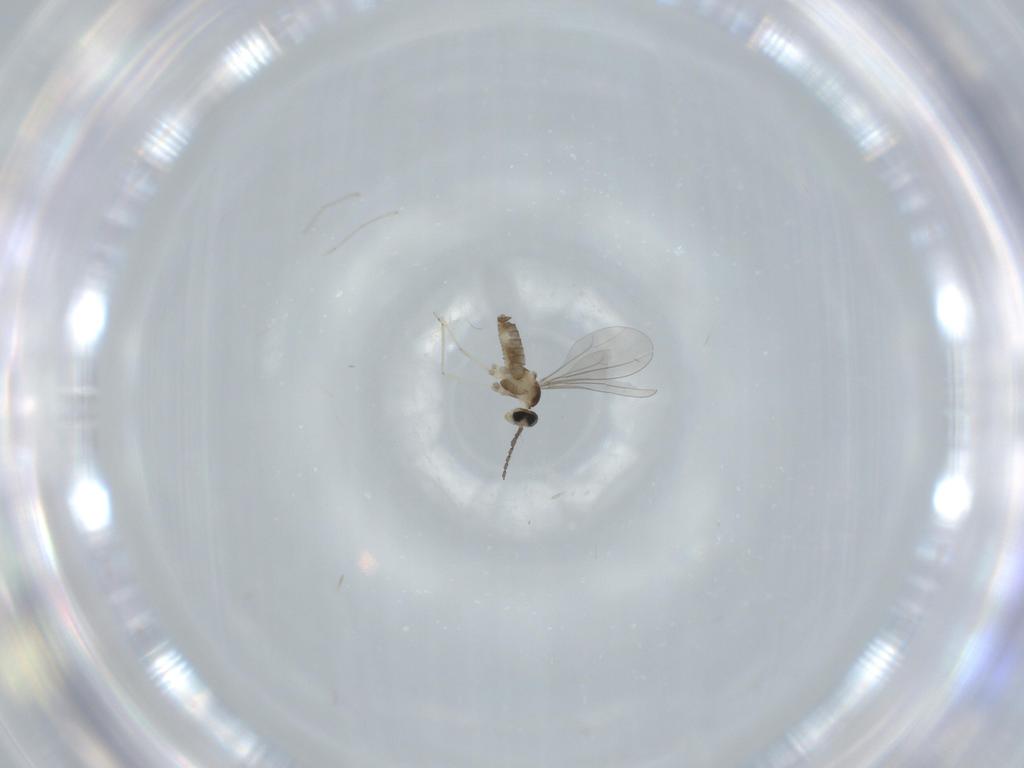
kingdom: Animalia
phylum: Arthropoda
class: Insecta
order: Diptera
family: Cecidomyiidae
